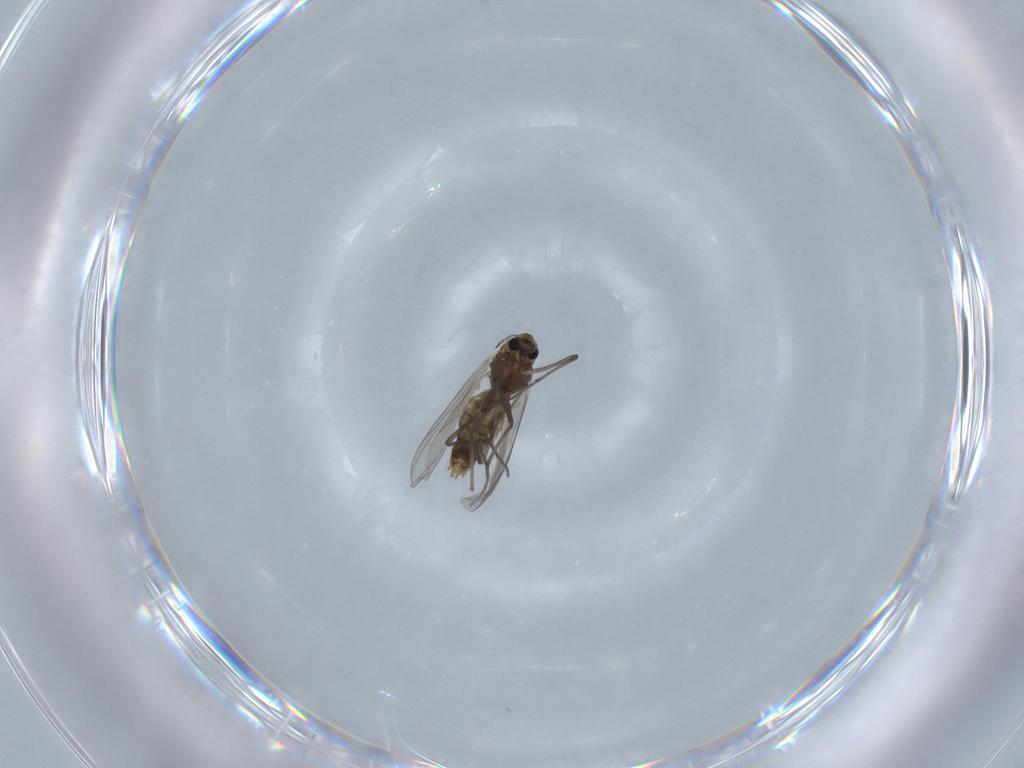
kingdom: Animalia
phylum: Arthropoda
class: Insecta
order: Diptera
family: Chironomidae
